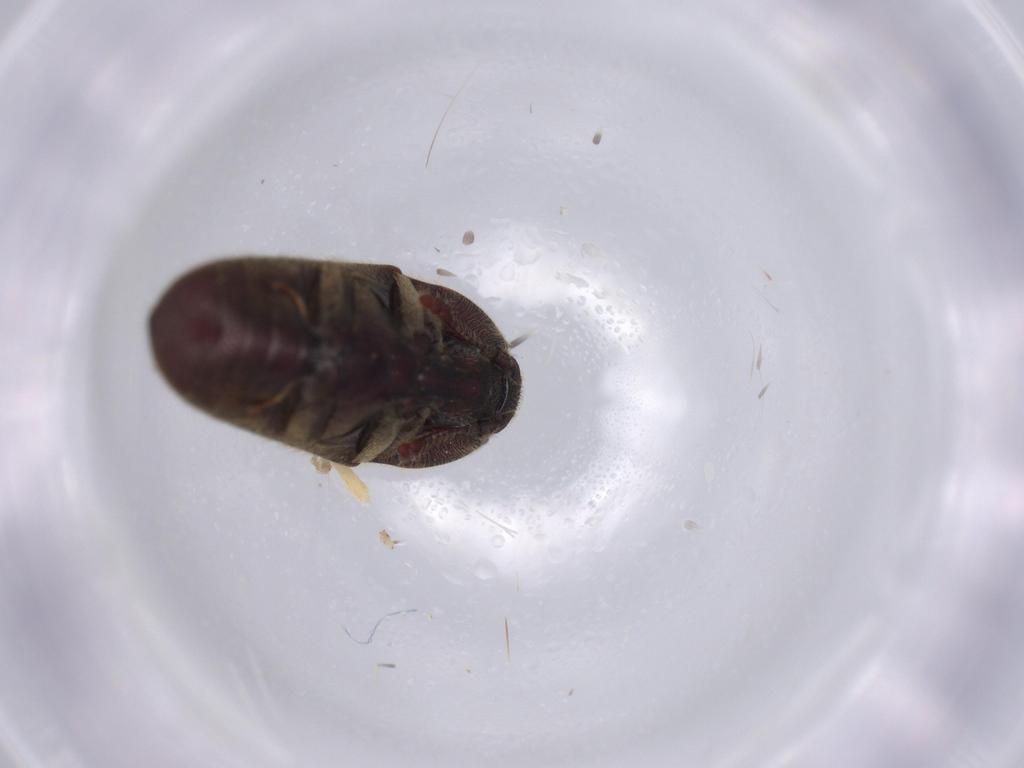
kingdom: Animalia
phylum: Arthropoda
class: Insecta
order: Coleoptera
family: Throscidae
